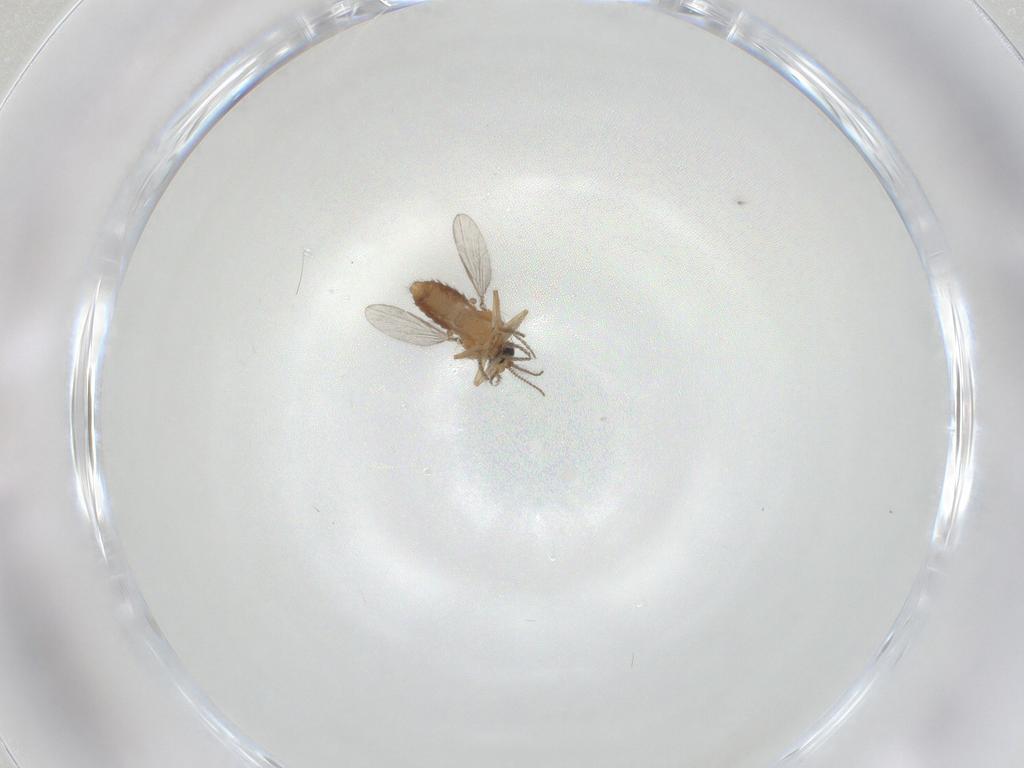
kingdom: Animalia
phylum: Arthropoda
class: Insecta
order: Diptera
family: Ceratopogonidae
